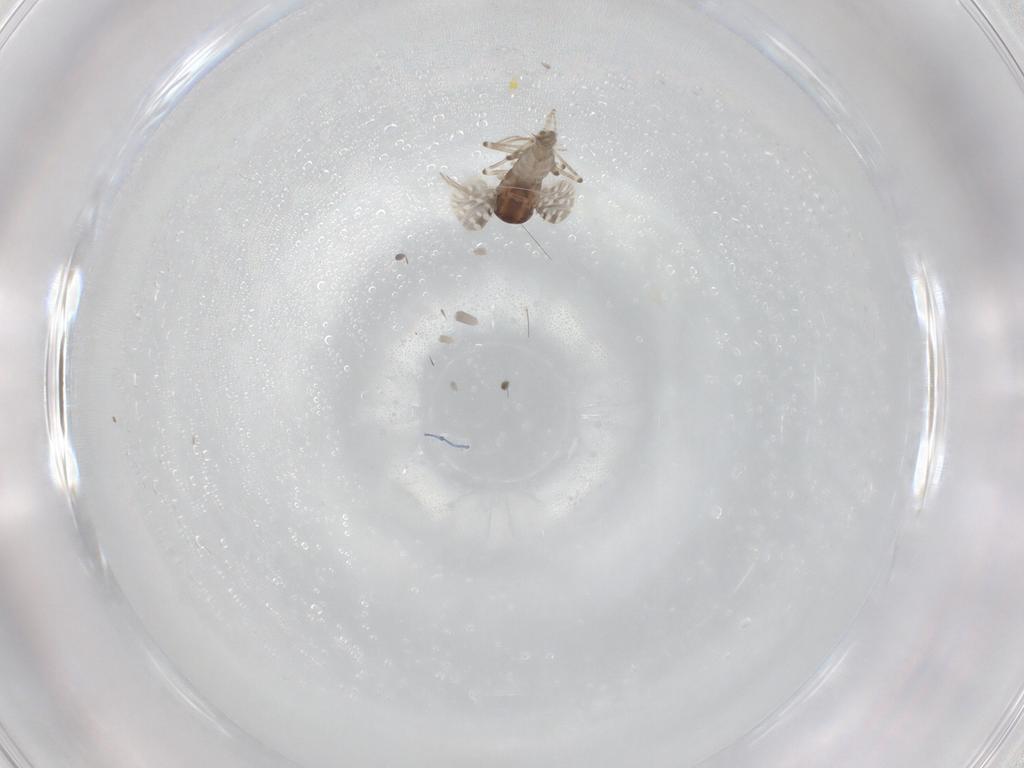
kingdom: Animalia
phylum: Arthropoda
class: Insecta
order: Diptera
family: Ceratopogonidae
